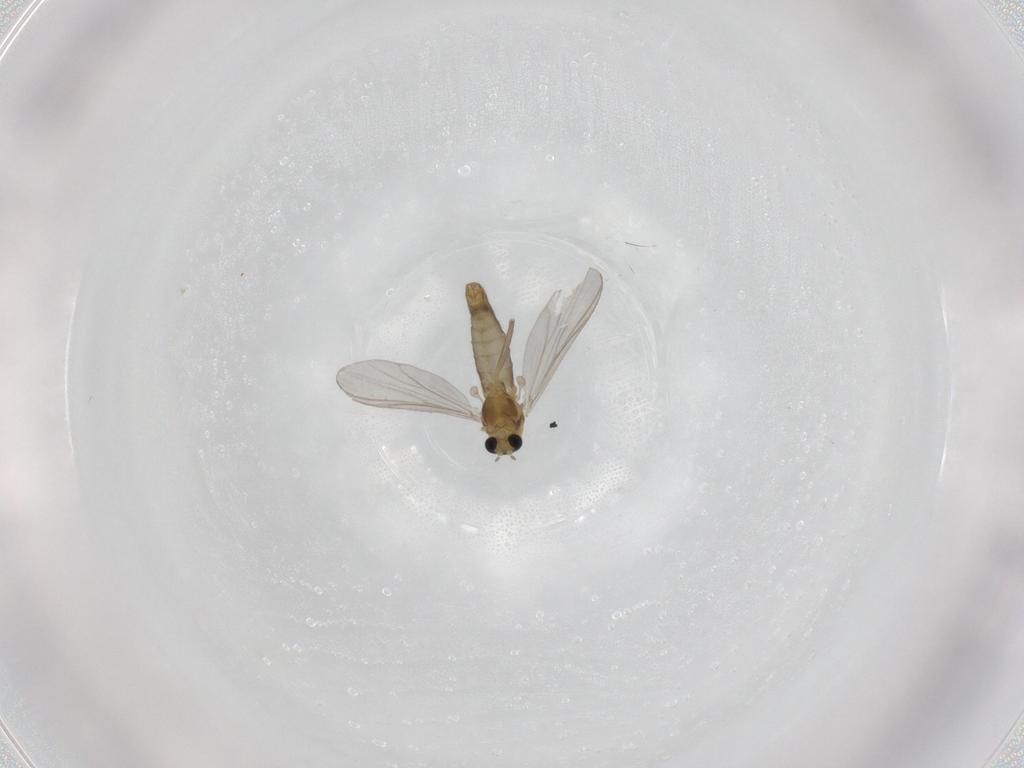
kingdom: Animalia
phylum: Arthropoda
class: Insecta
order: Diptera
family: Chironomidae
